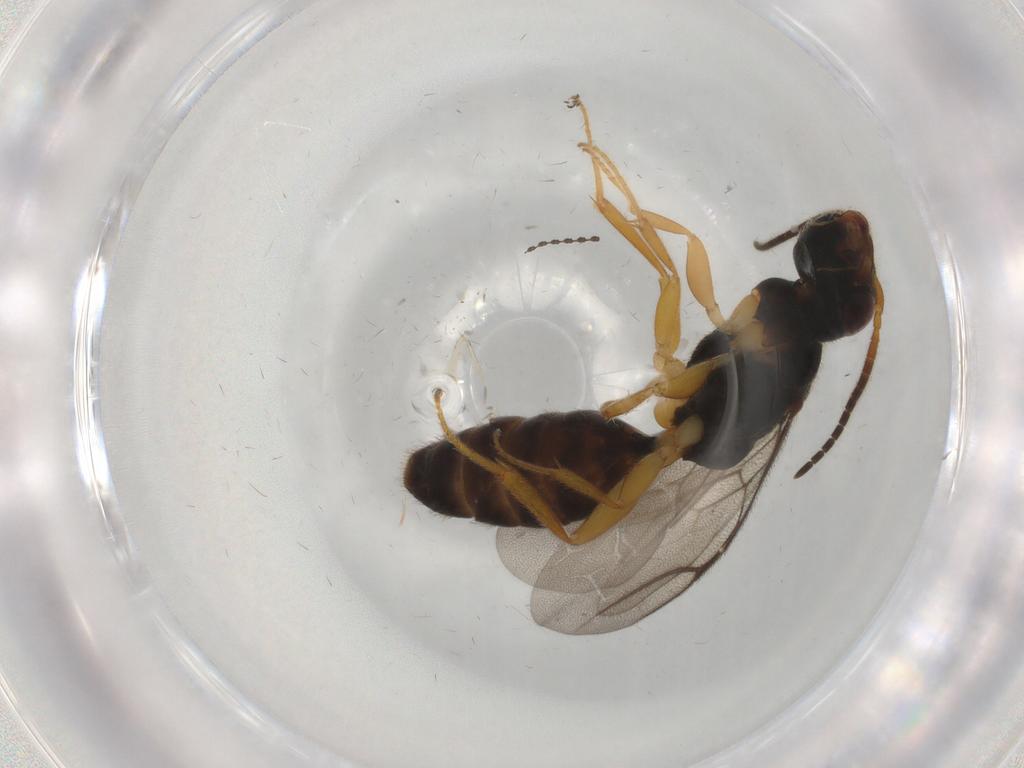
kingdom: Animalia
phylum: Arthropoda
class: Insecta
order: Hymenoptera
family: Bethylidae
